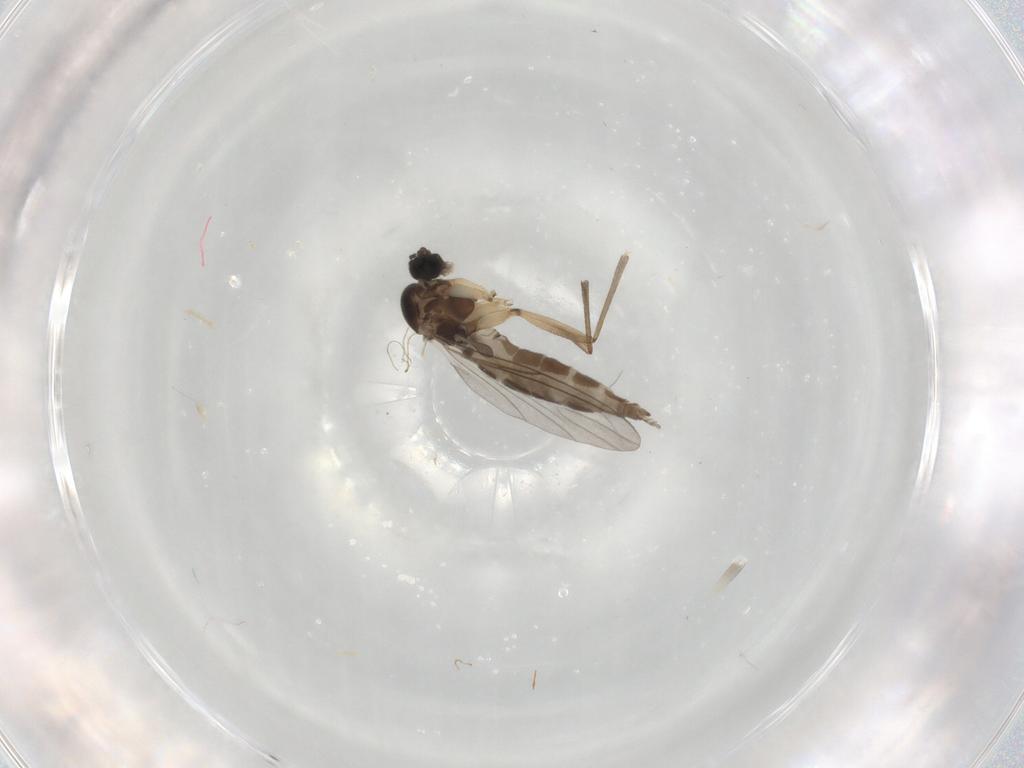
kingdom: Animalia
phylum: Arthropoda
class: Insecta
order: Diptera
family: Sciaridae
